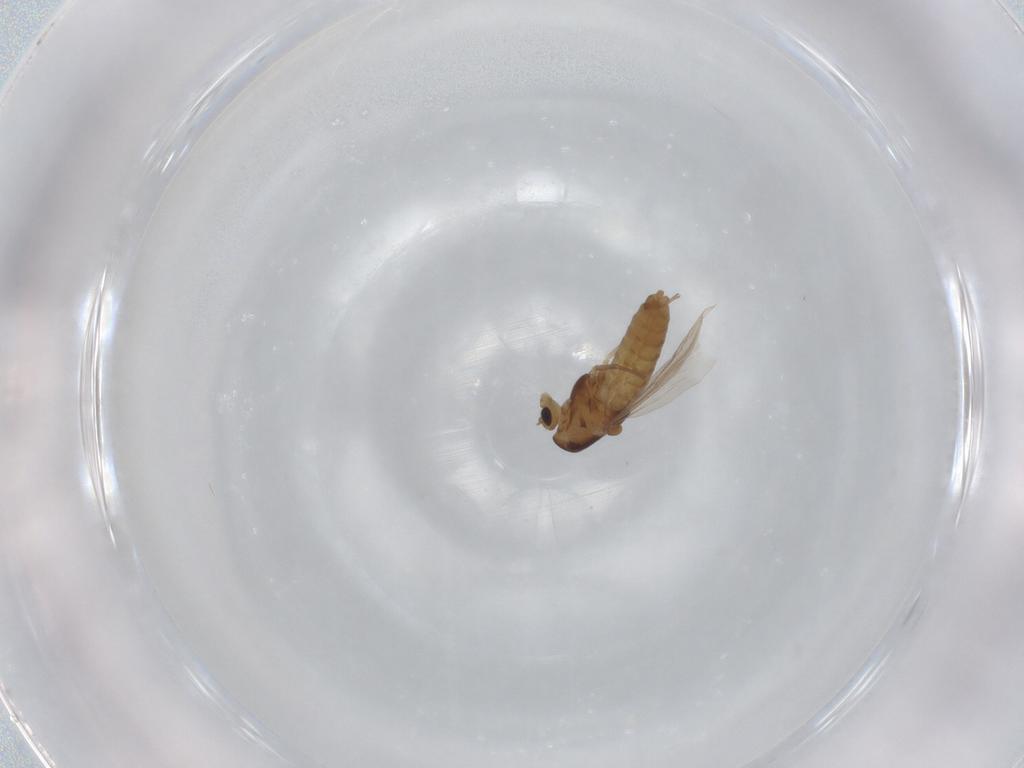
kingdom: Animalia
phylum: Arthropoda
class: Insecta
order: Diptera
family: Chironomidae
